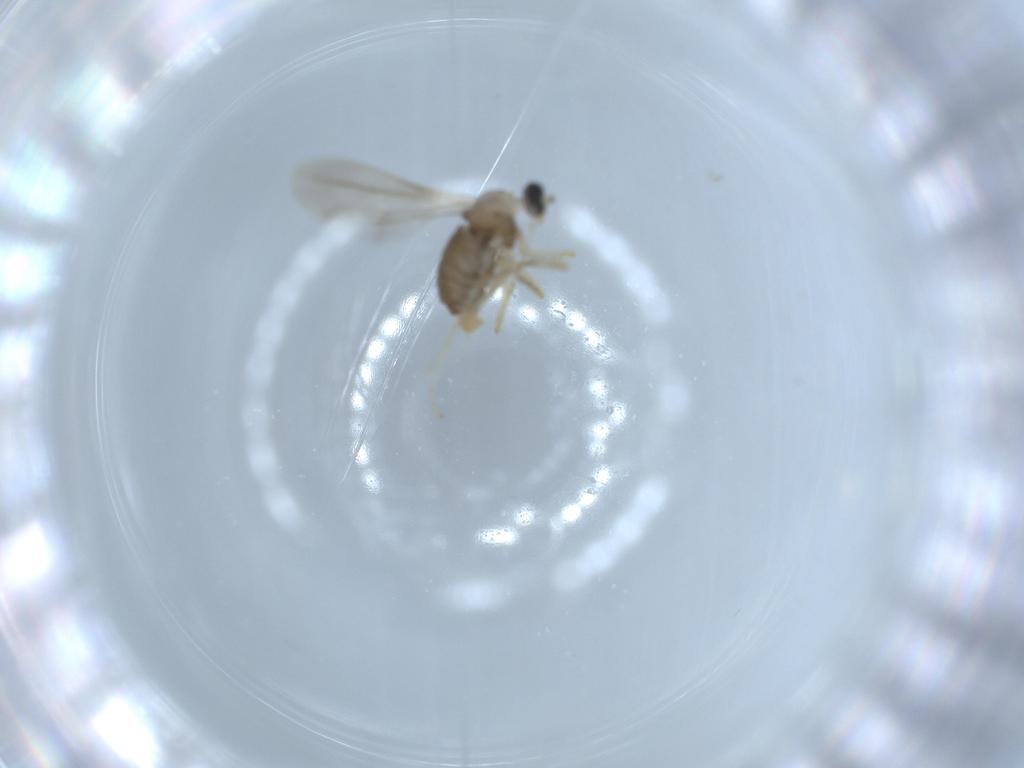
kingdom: Animalia
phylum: Arthropoda
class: Insecta
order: Diptera
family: Cecidomyiidae
